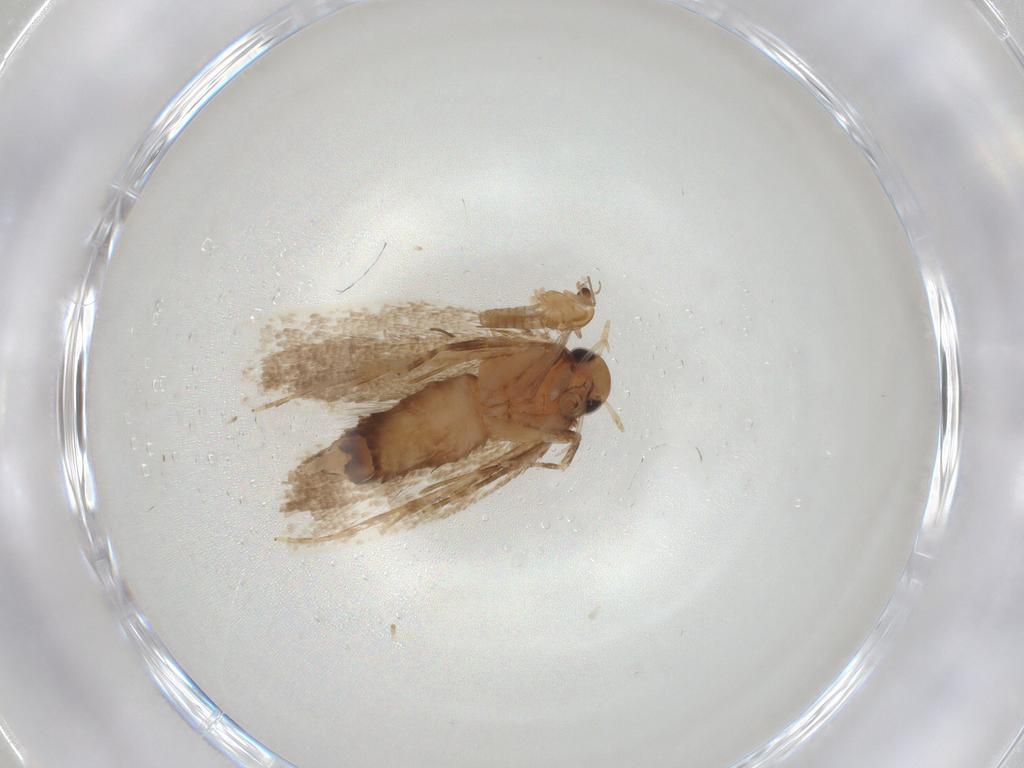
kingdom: Animalia
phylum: Arthropoda
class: Insecta
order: Lepidoptera
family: Oecophoridae
